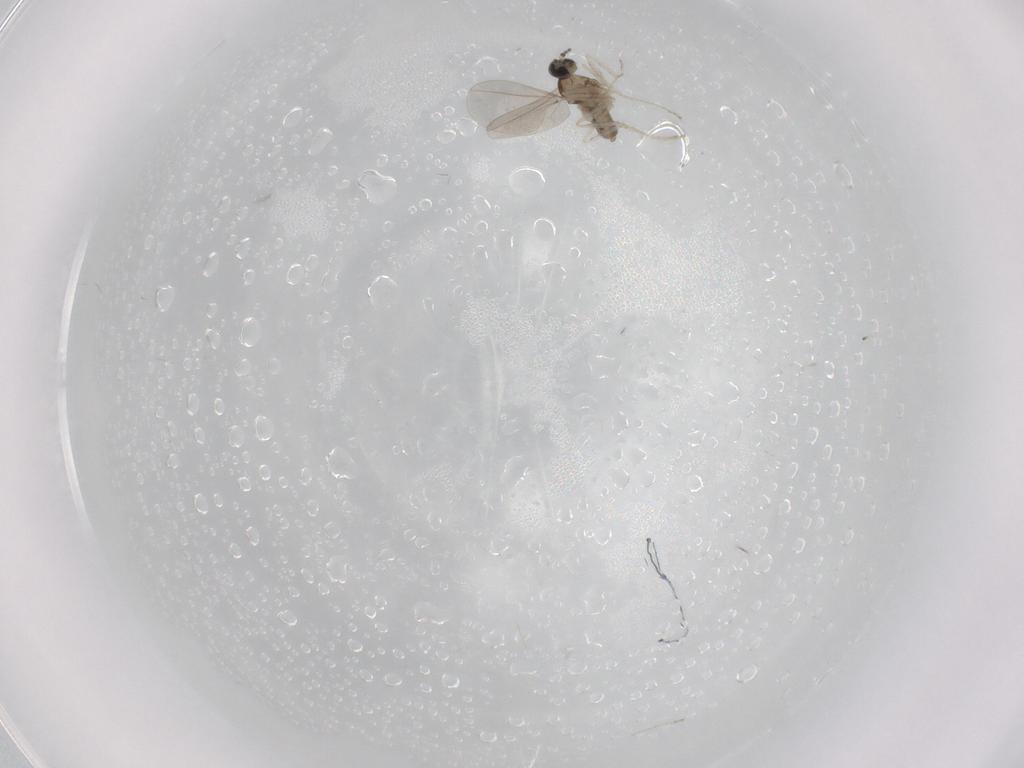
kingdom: Animalia
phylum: Arthropoda
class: Insecta
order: Diptera
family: Cecidomyiidae
